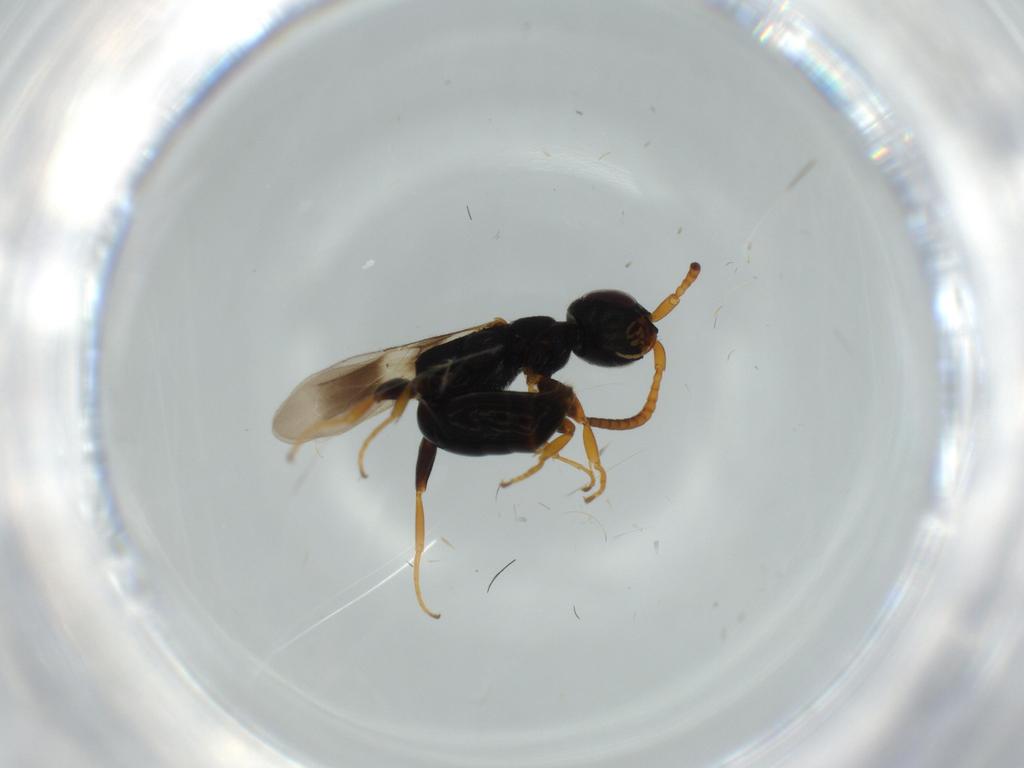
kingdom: Animalia
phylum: Arthropoda
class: Insecta
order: Hymenoptera
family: Bethylidae
